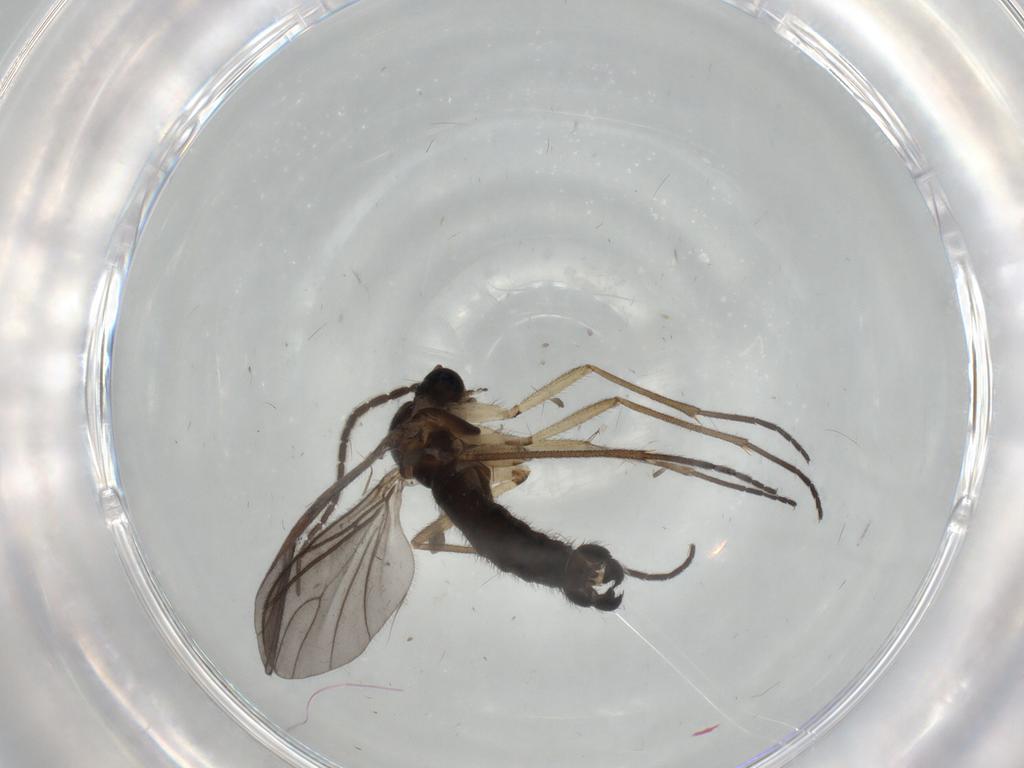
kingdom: Animalia
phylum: Arthropoda
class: Insecta
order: Diptera
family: Sciaridae
